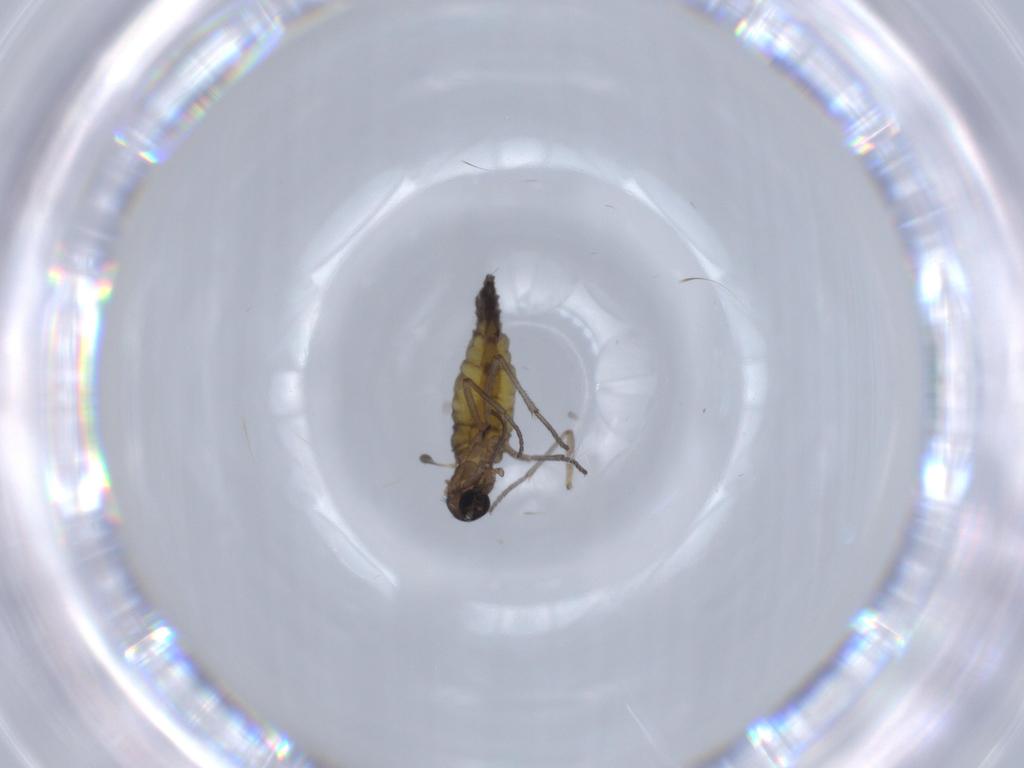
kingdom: Animalia
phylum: Arthropoda
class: Insecta
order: Diptera
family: Sciaridae
